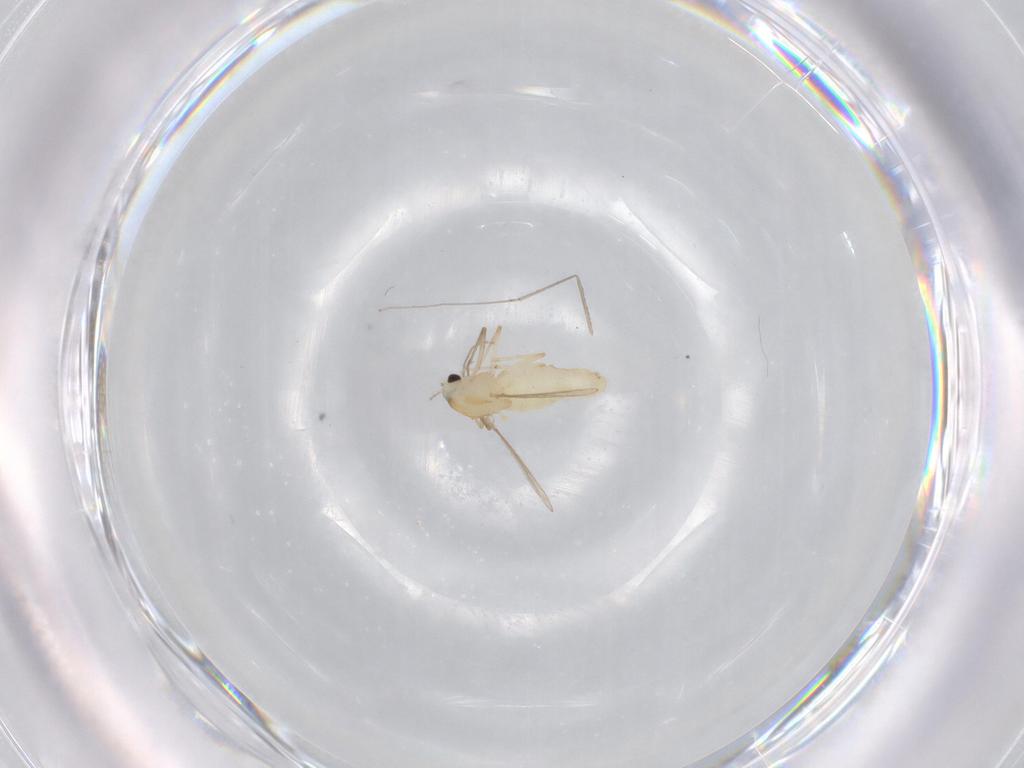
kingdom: Animalia
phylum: Arthropoda
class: Insecta
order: Diptera
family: Chironomidae
